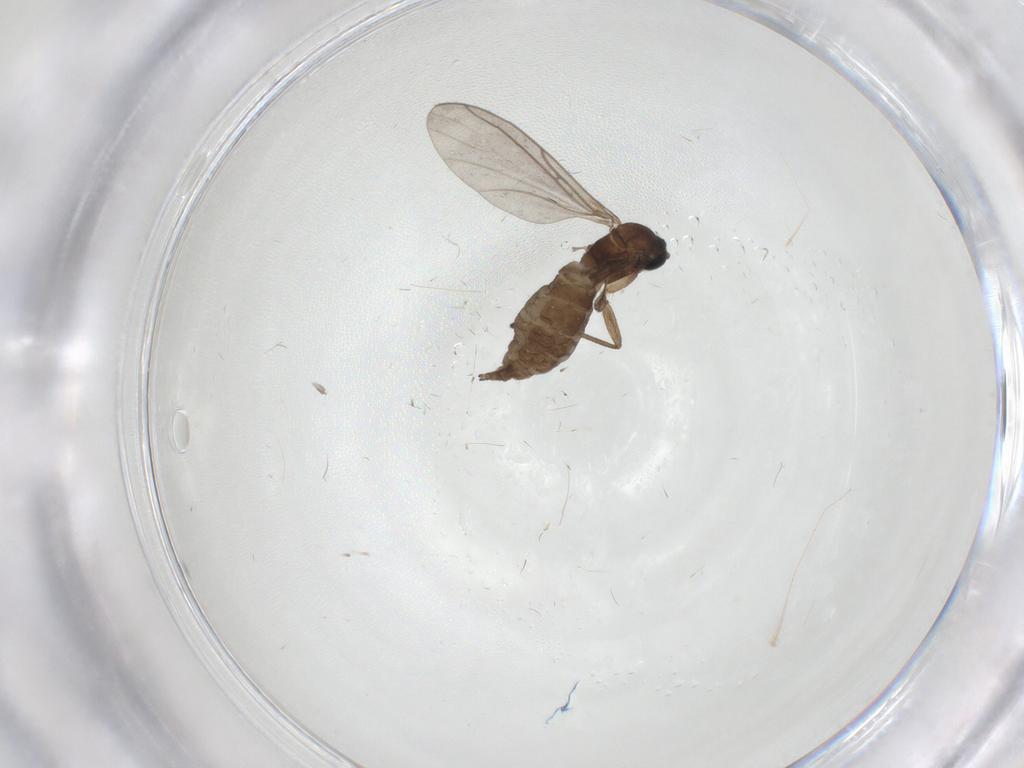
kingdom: Animalia
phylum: Arthropoda
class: Insecta
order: Diptera
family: Sciaridae
